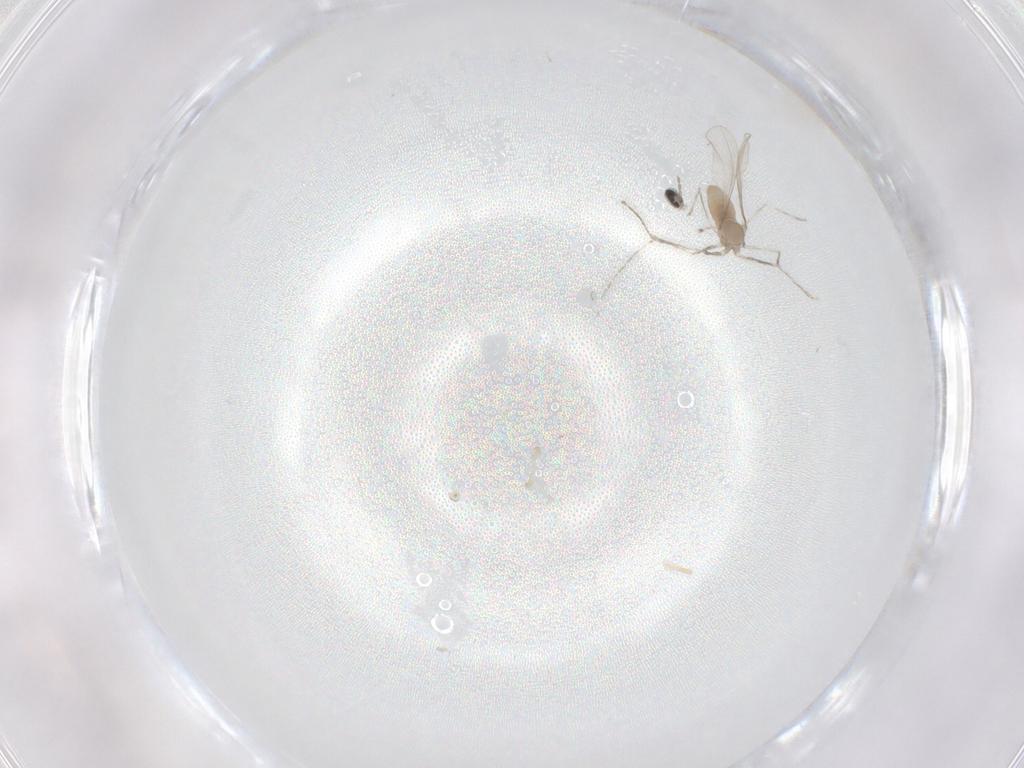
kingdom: Animalia
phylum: Arthropoda
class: Insecta
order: Diptera
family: Cecidomyiidae
